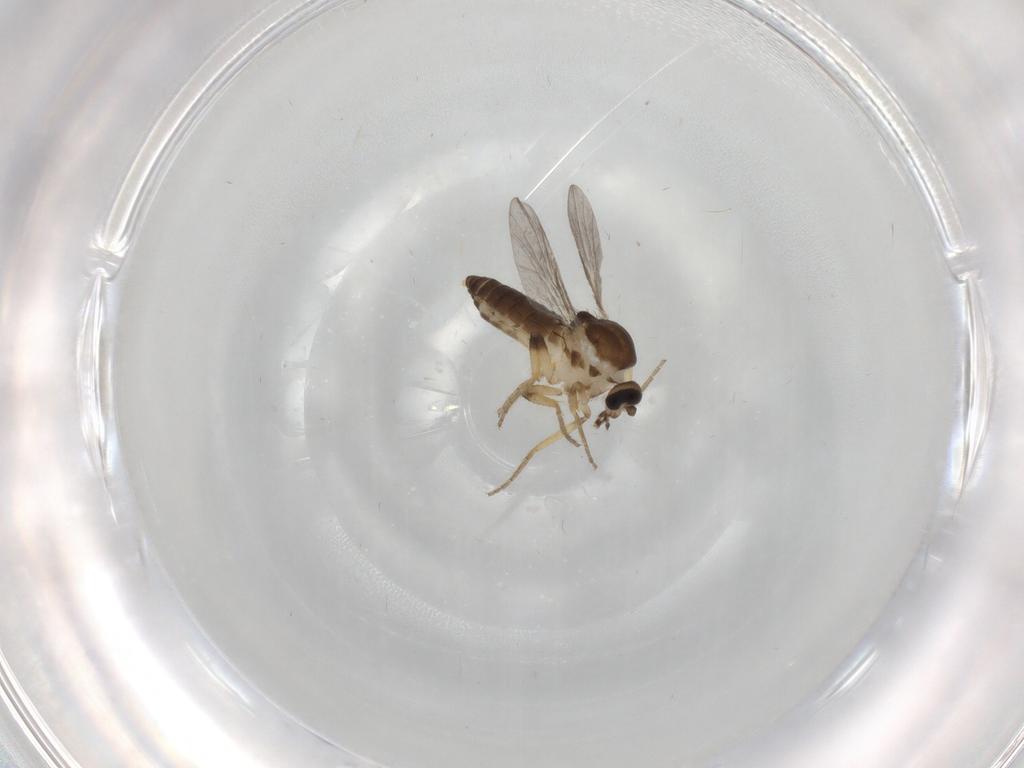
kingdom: Animalia
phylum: Arthropoda
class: Insecta
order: Diptera
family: Ceratopogonidae
